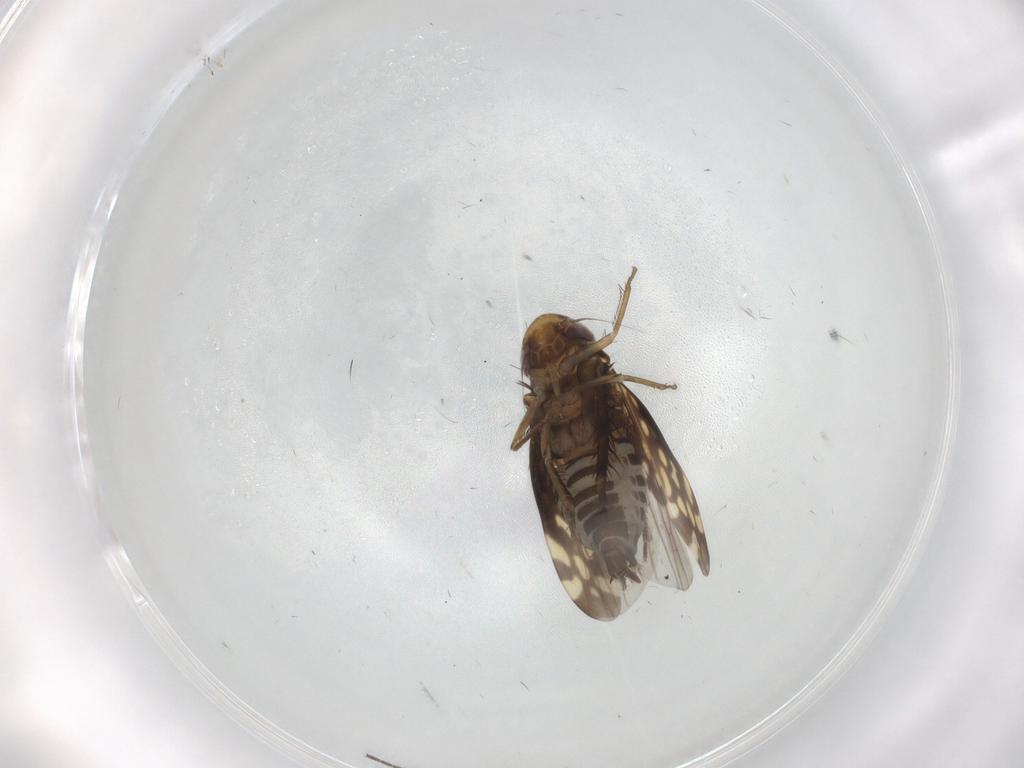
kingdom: Animalia
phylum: Arthropoda
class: Insecta
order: Hemiptera
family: Cicadellidae
